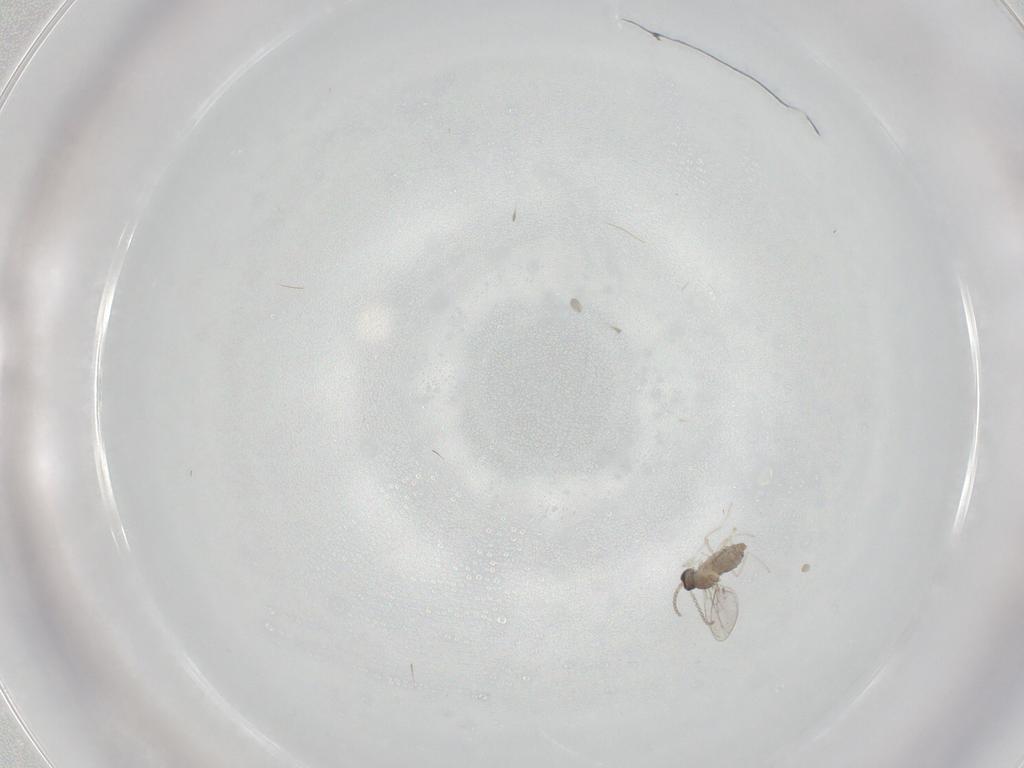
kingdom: Animalia
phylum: Arthropoda
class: Insecta
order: Diptera
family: Cecidomyiidae
